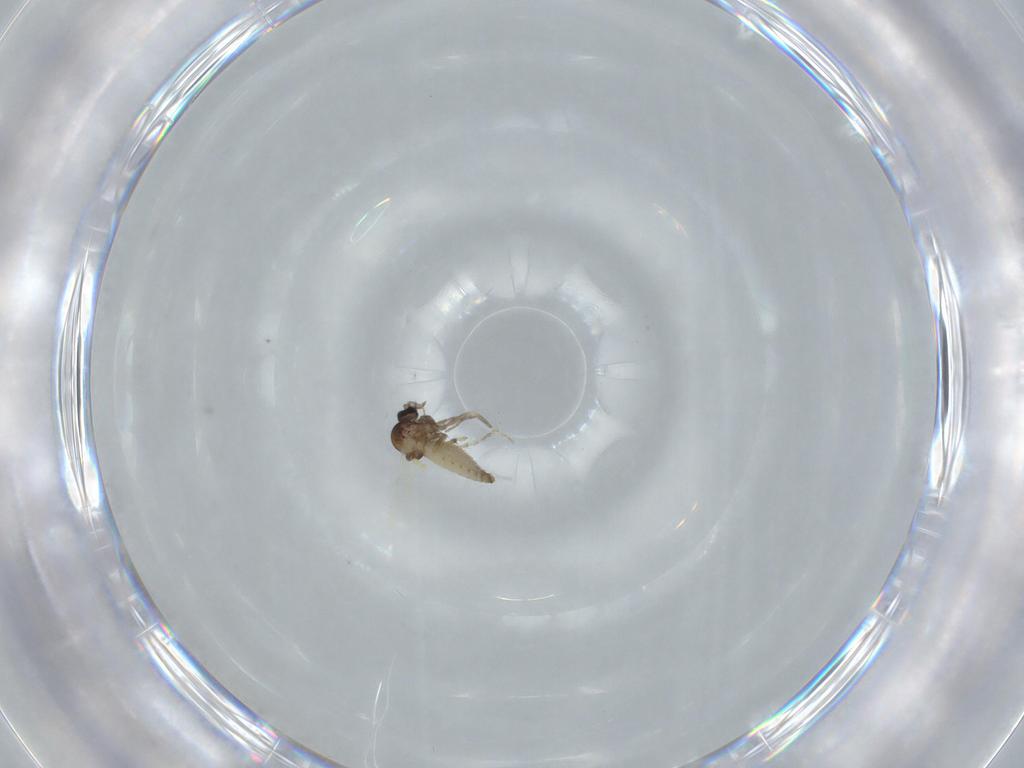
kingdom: Animalia
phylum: Arthropoda
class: Insecta
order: Diptera
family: Ceratopogonidae
